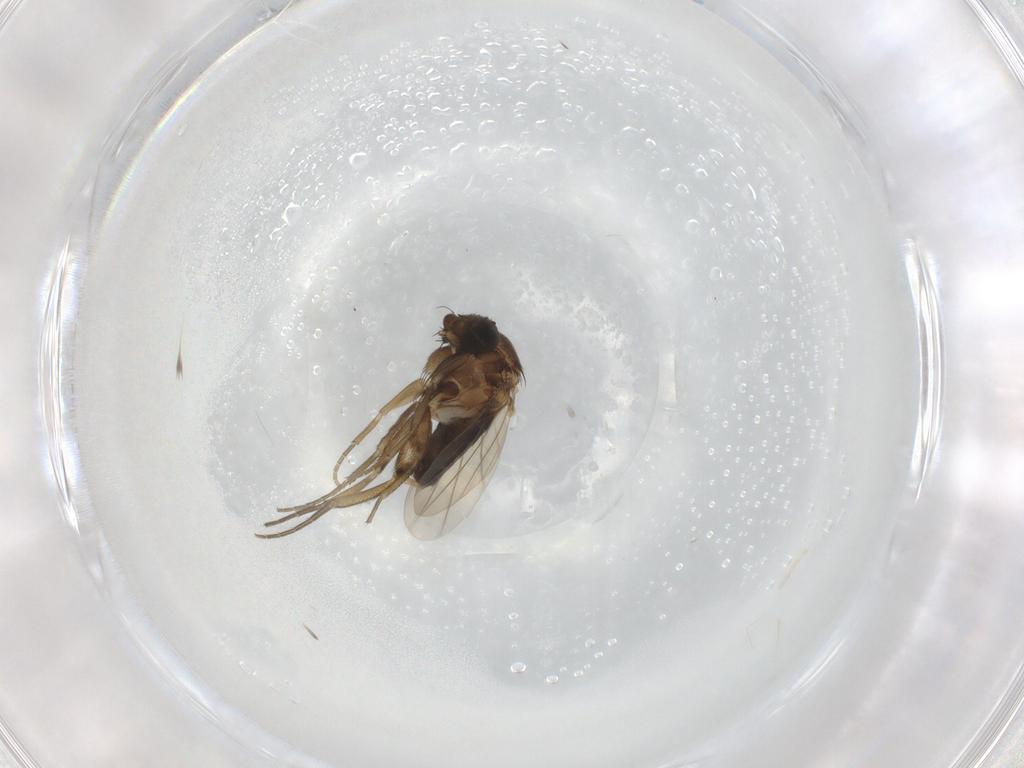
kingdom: Animalia
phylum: Arthropoda
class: Insecta
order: Diptera
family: Phoridae
